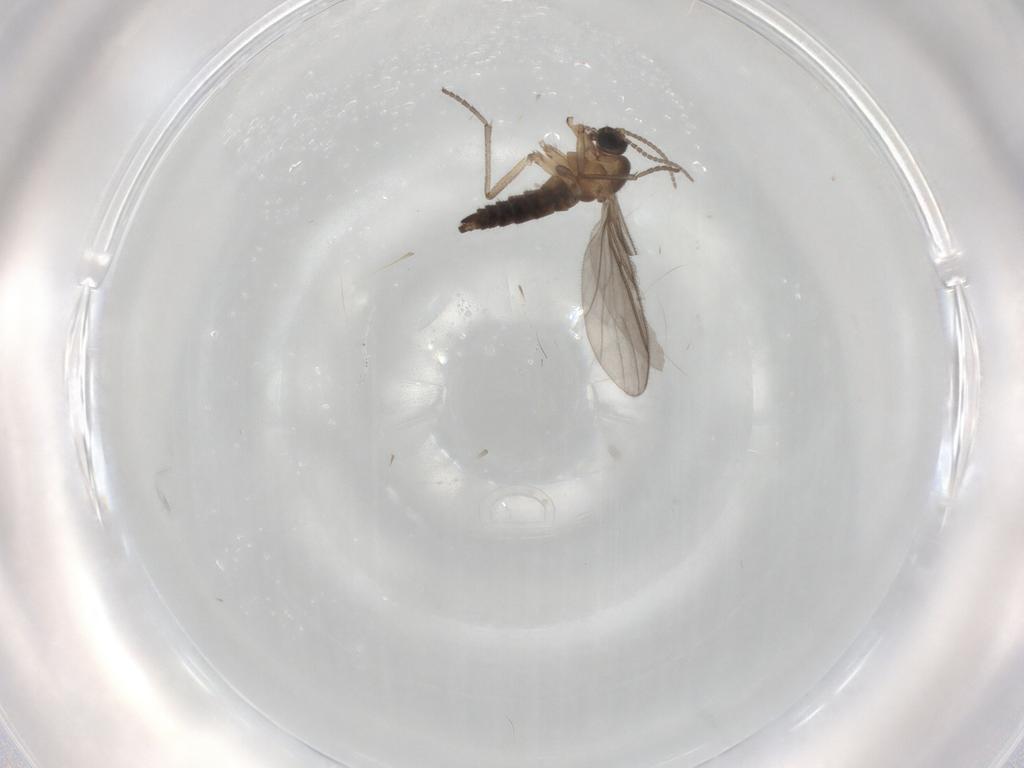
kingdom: Animalia
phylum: Arthropoda
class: Insecta
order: Diptera
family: Sciaridae
